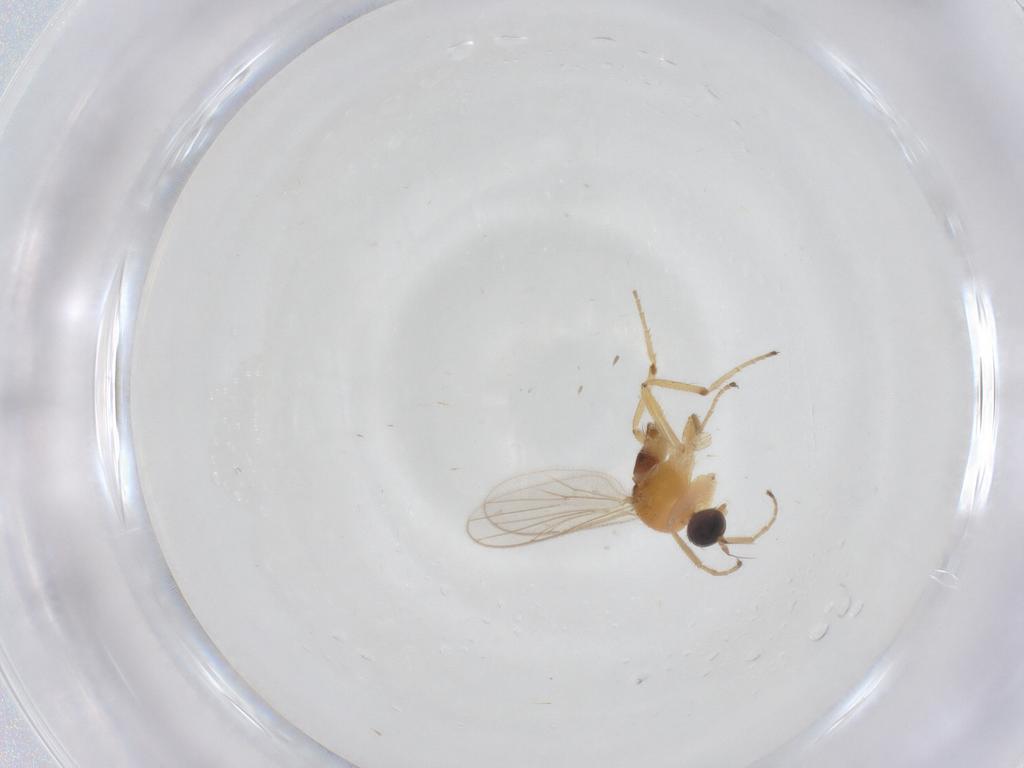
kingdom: Animalia
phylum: Arthropoda
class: Insecta
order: Diptera
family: Hybotidae
